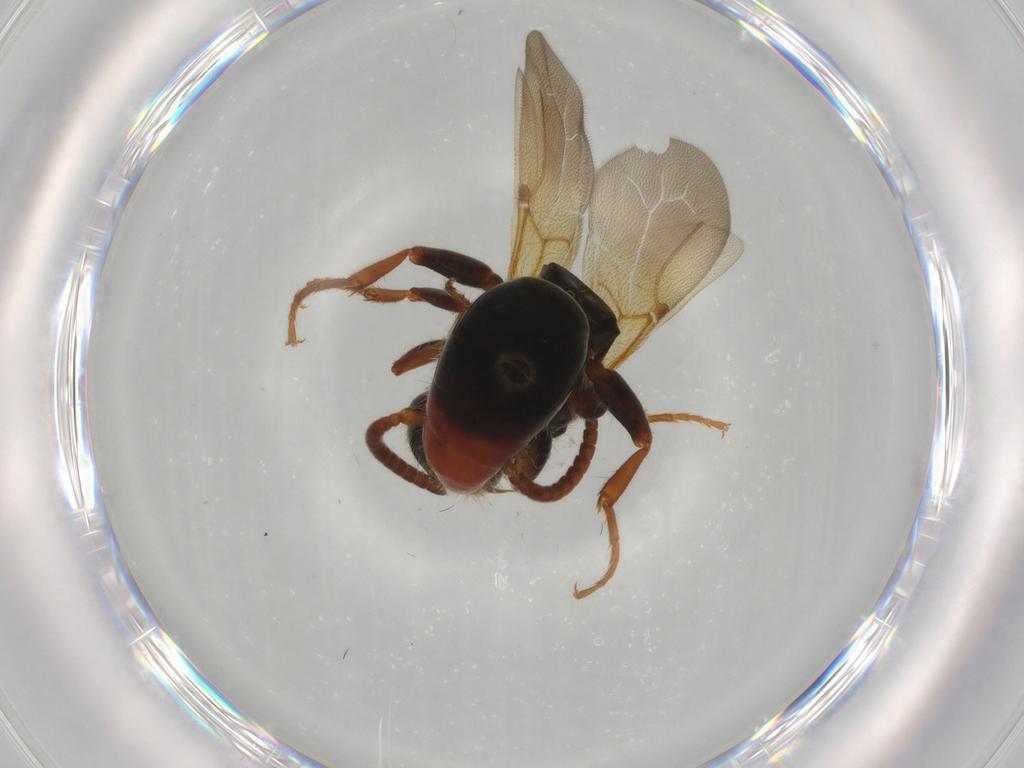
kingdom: Animalia
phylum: Arthropoda
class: Insecta
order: Hymenoptera
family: Bethylidae
